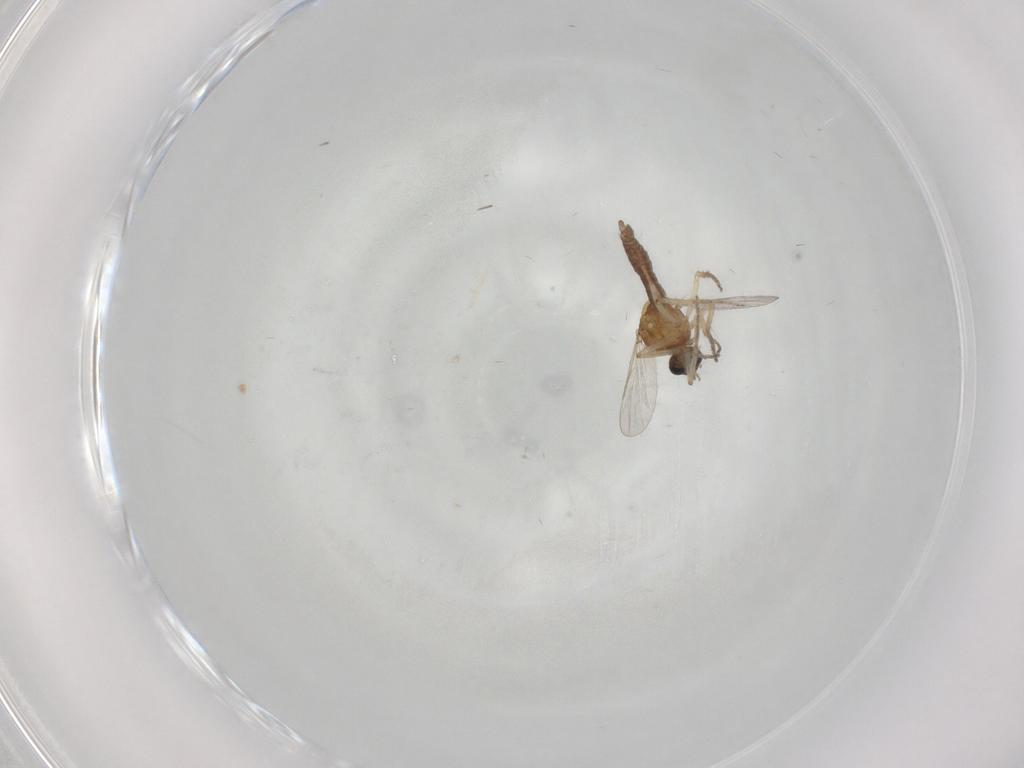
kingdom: Animalia
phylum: Arthropoda
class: Insecta
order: Diptera
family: Ceratopogonidae
